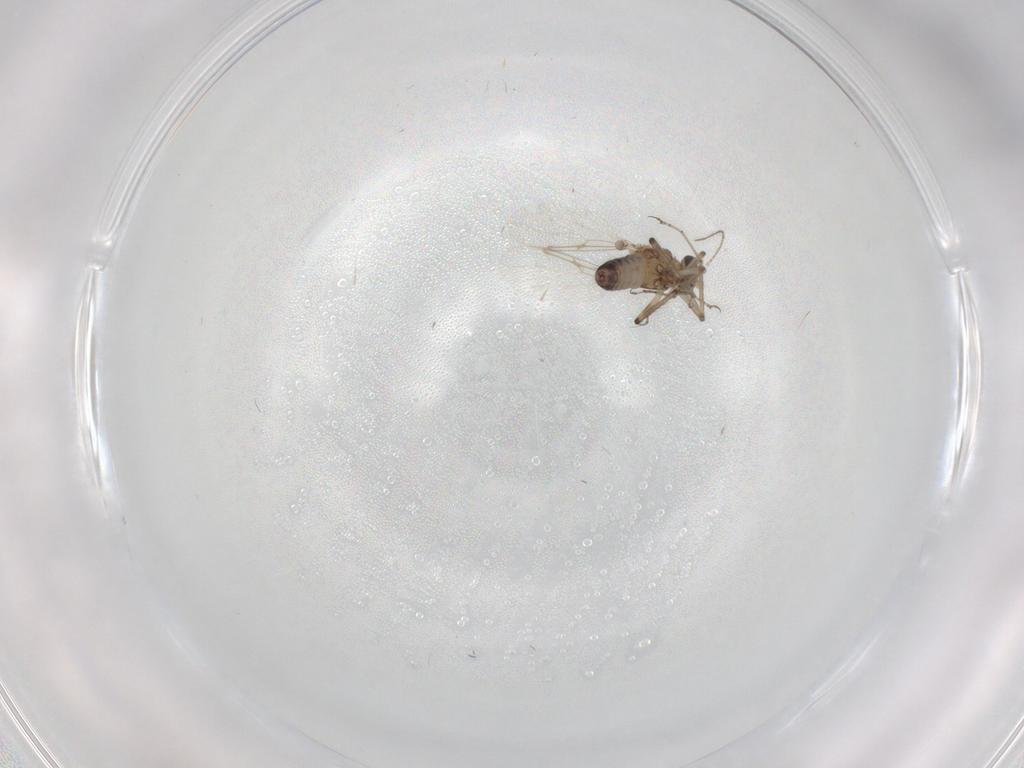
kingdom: Animalia
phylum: Arthropoda
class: Insecta
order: Diptera
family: Ceratopogonidae
